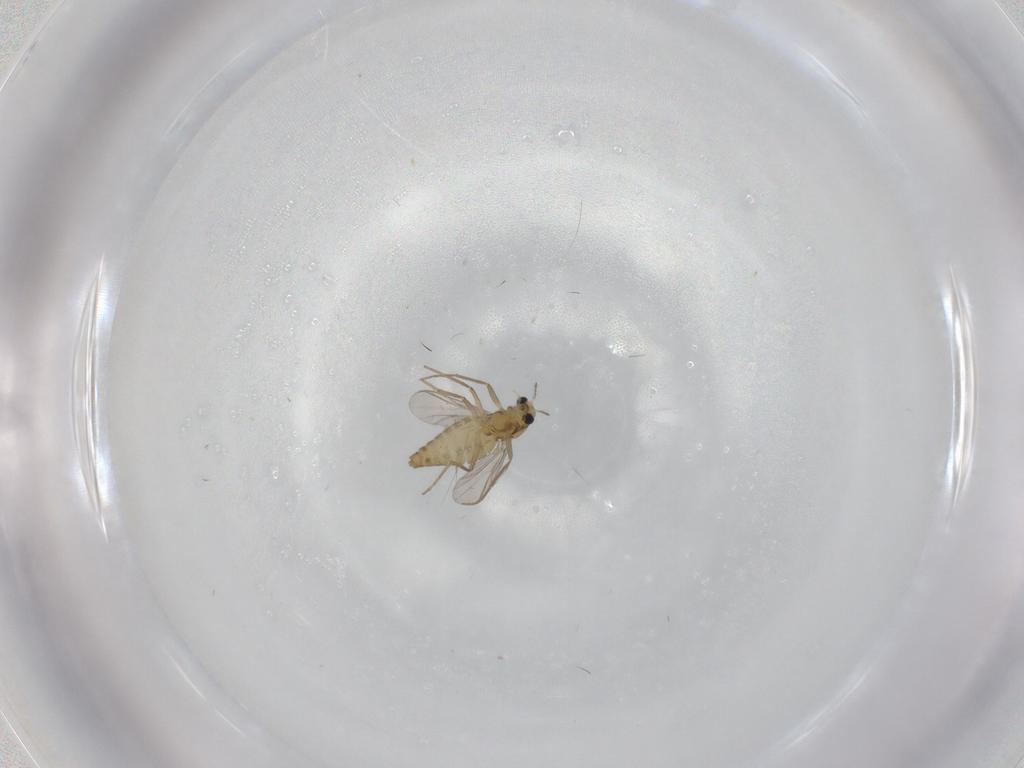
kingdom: Animalia
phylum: Arthropoda
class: Insecta
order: Diptera
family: Chironomidae
